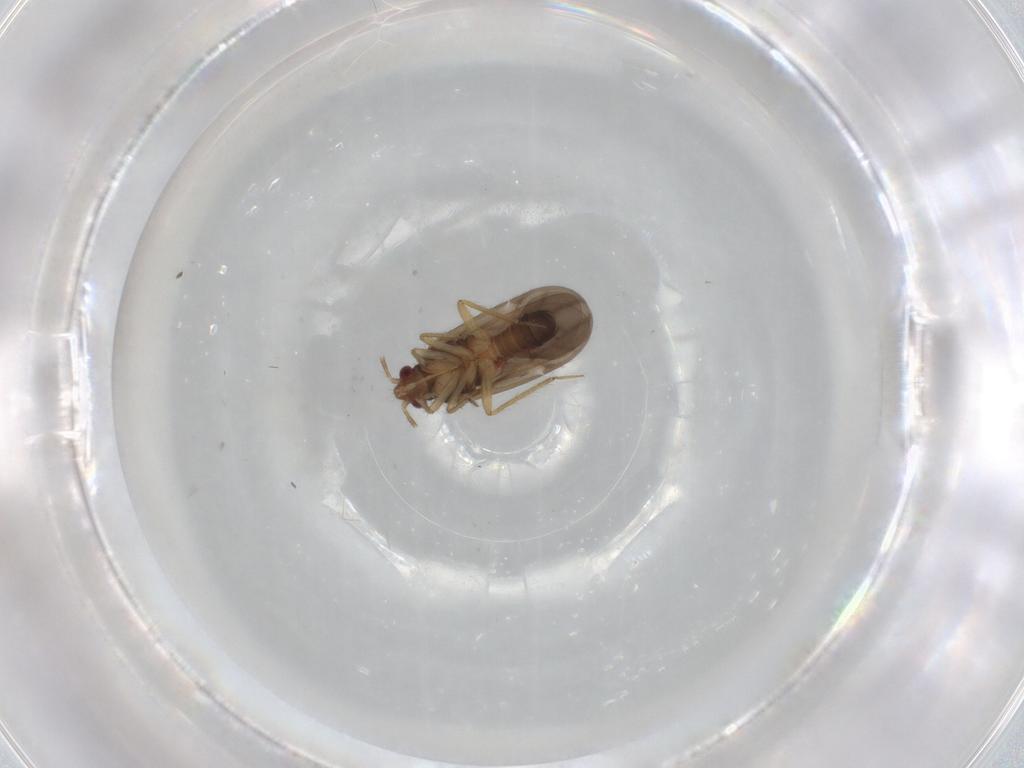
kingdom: Animalia
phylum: Arthropoda
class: Insecta
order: Hemiptera
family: Ceratocombidae
